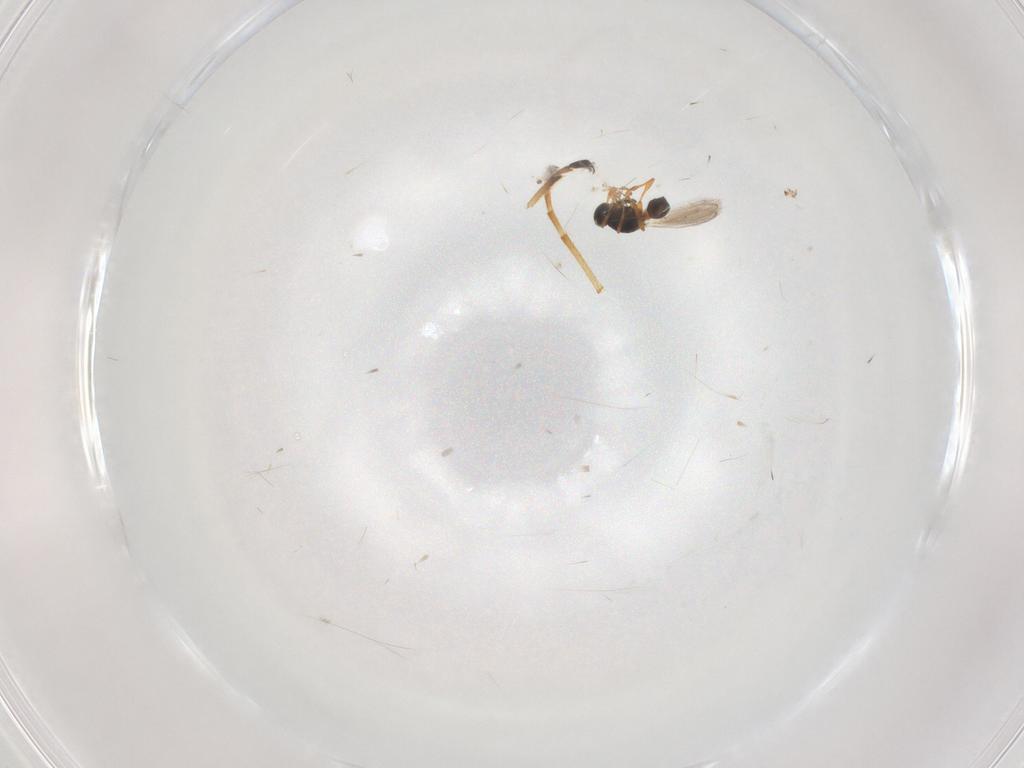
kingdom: Animalia
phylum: Arthropoda
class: Insecta
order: Hymenoptera
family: Platygastridae
